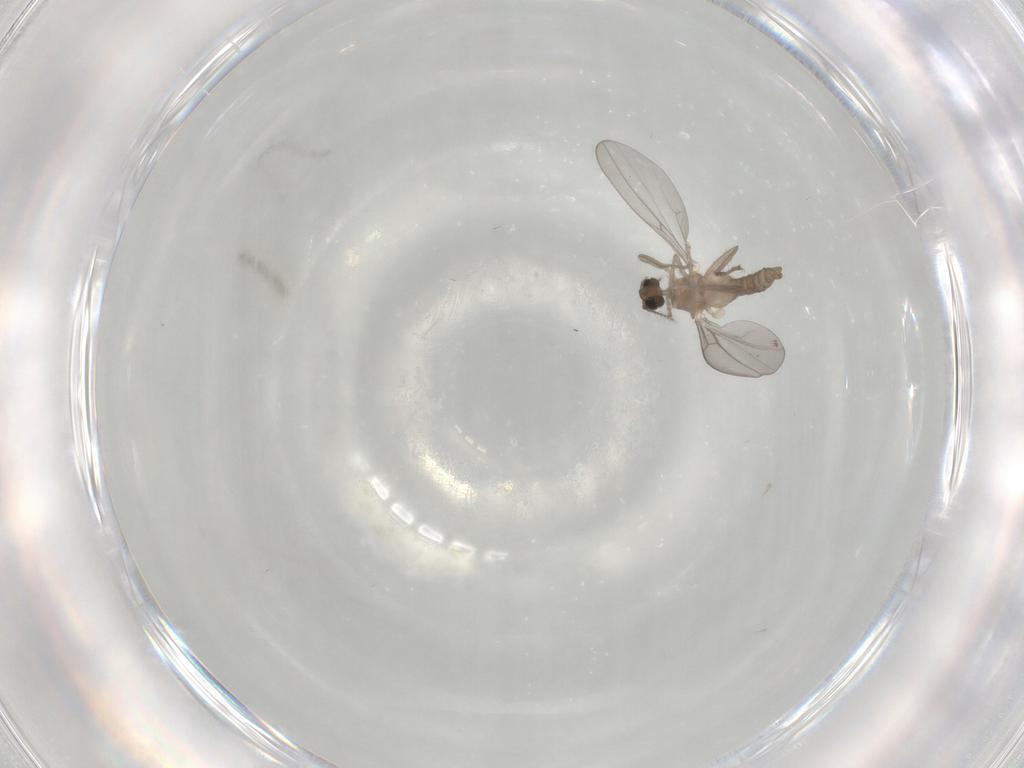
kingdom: Animalia
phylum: Arthropoda
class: Insecta
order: Diptera
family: Cecidomyiidae
